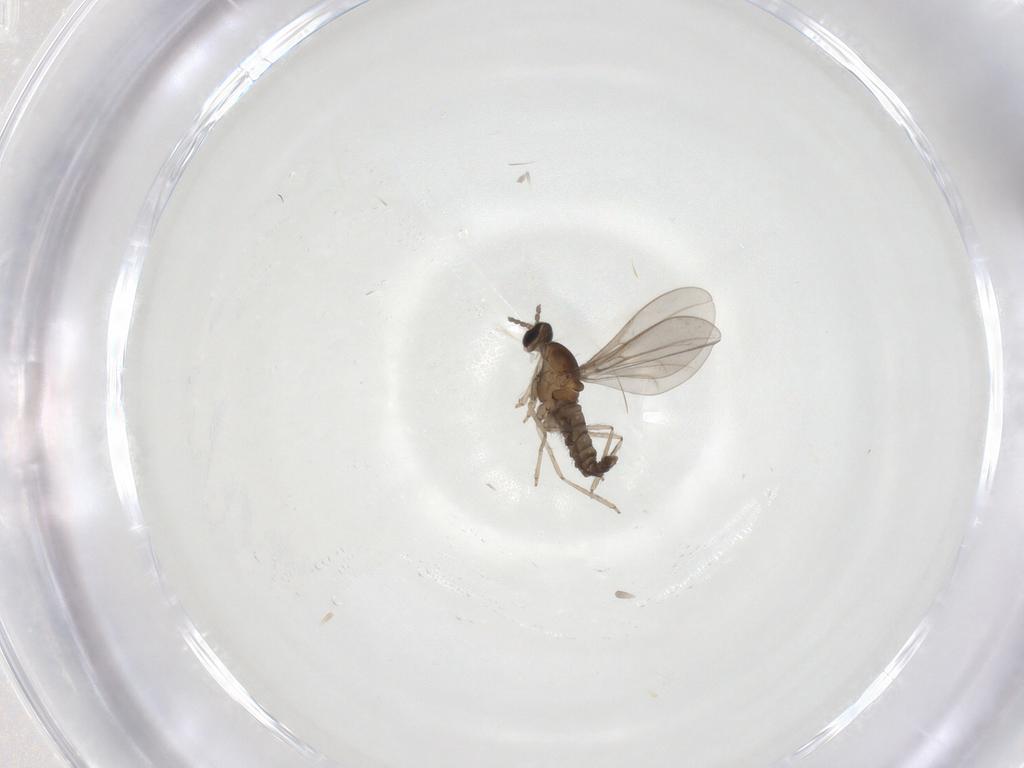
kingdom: Animalia
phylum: Arthropoda
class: Insecta
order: Diptera
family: Cecidomyiidae
